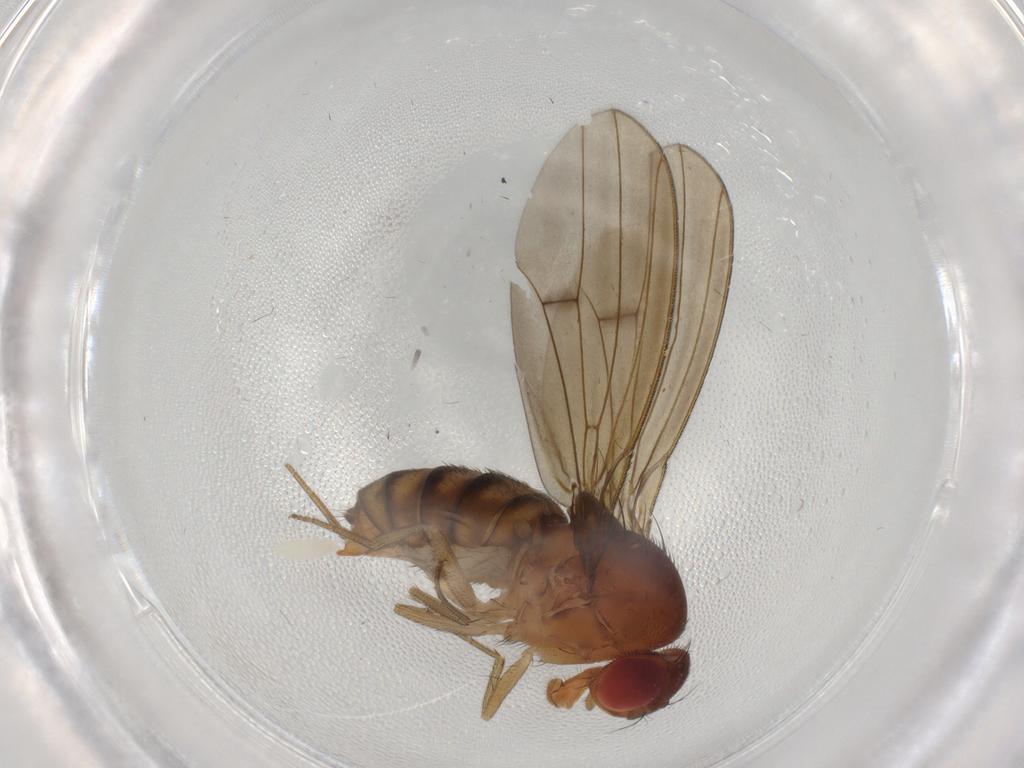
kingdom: Animalia
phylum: Arthropoda
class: Insecta
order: Diptera
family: Drosophilidae
